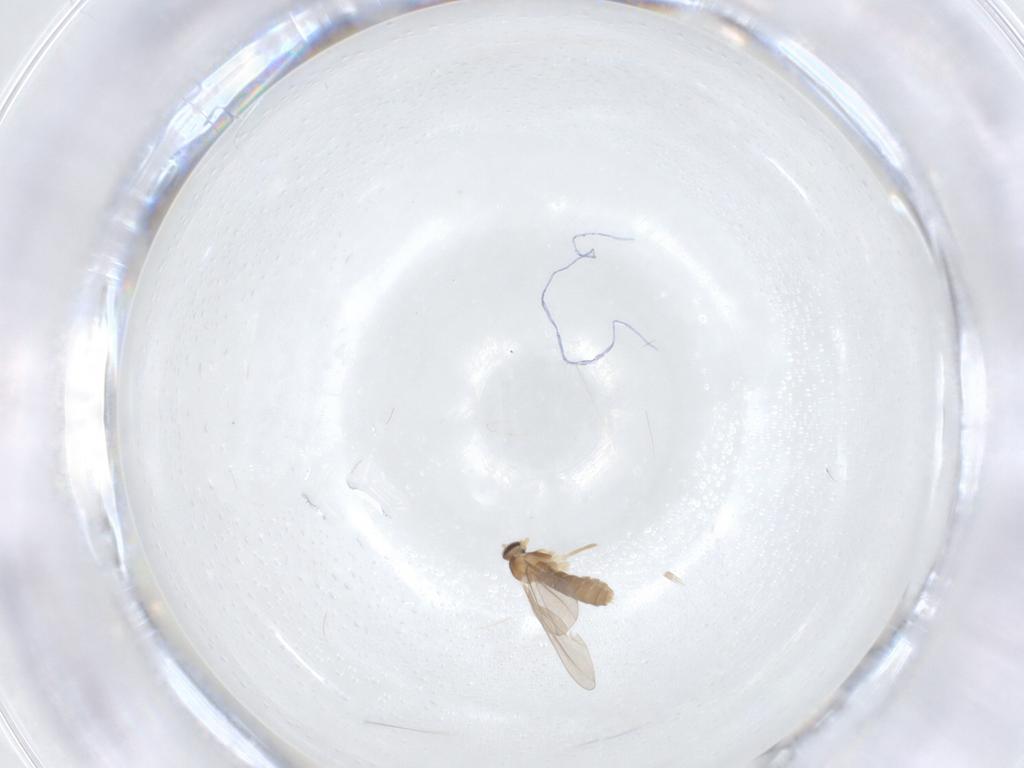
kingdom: Animalia
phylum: Arthropoda
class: Insecta
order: Diptera
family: Cecidomyiidae
